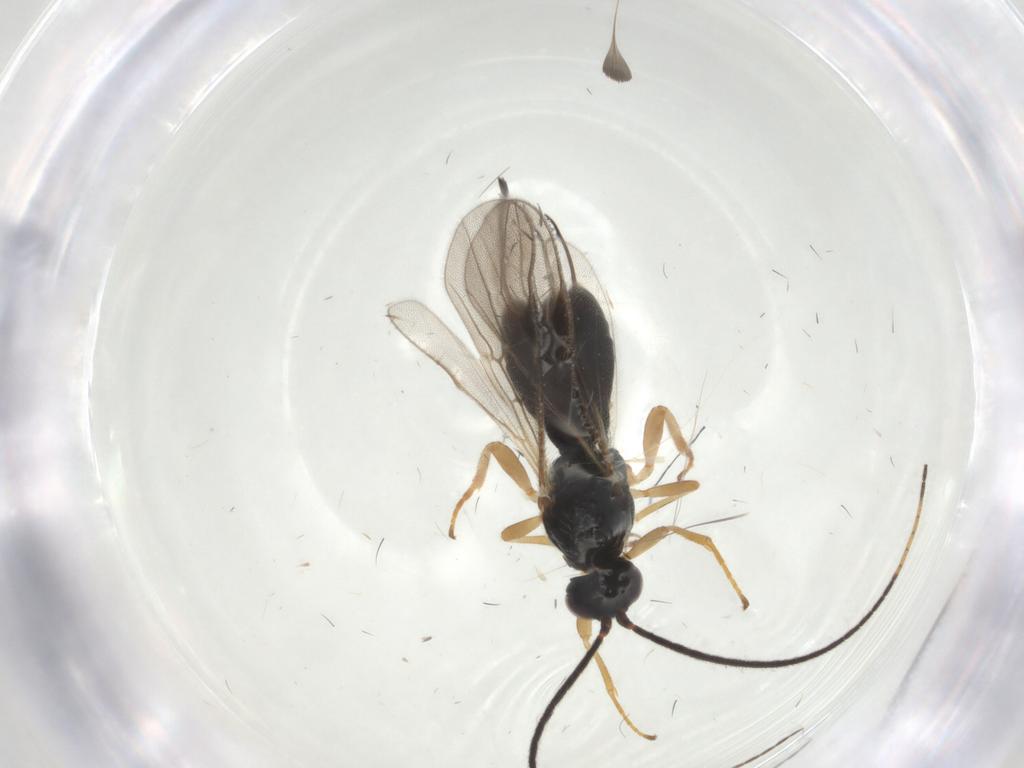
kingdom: Animalia
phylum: Arthropoda
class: Insecta
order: Hymenoptera
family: Braconidae
